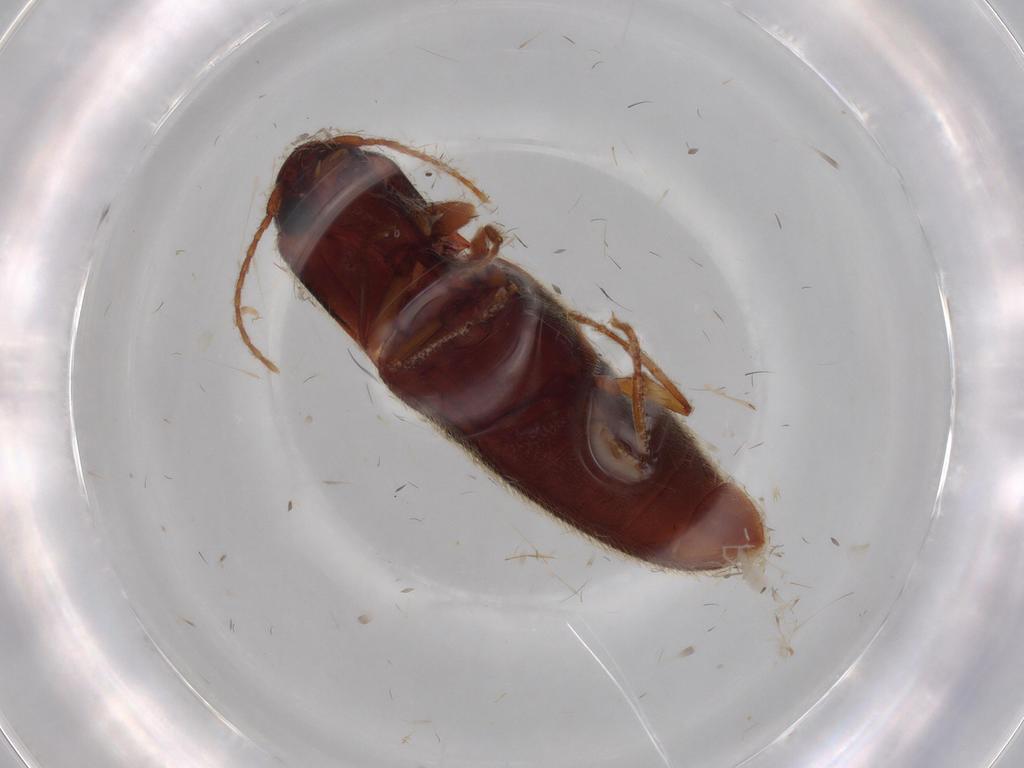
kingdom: Animalia
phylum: Arthropoda
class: Insecta
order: Coleoptera
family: Elateridae
